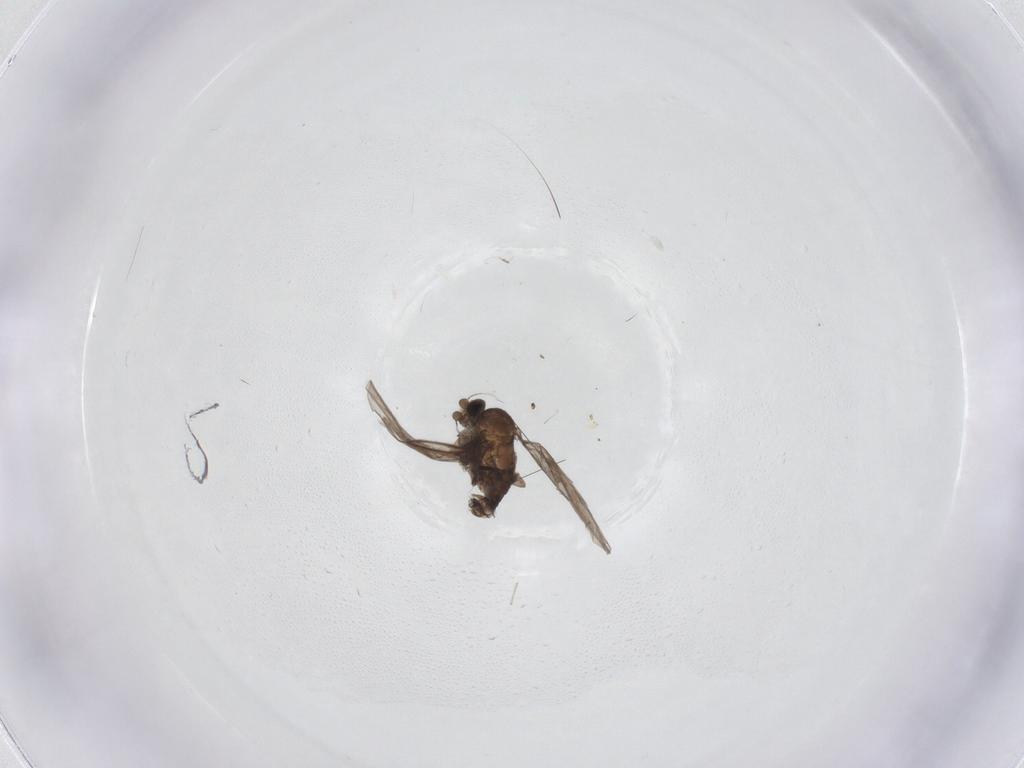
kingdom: Animalia
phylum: Arthropoda
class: Insecta
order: Diptera
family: Phoridae
